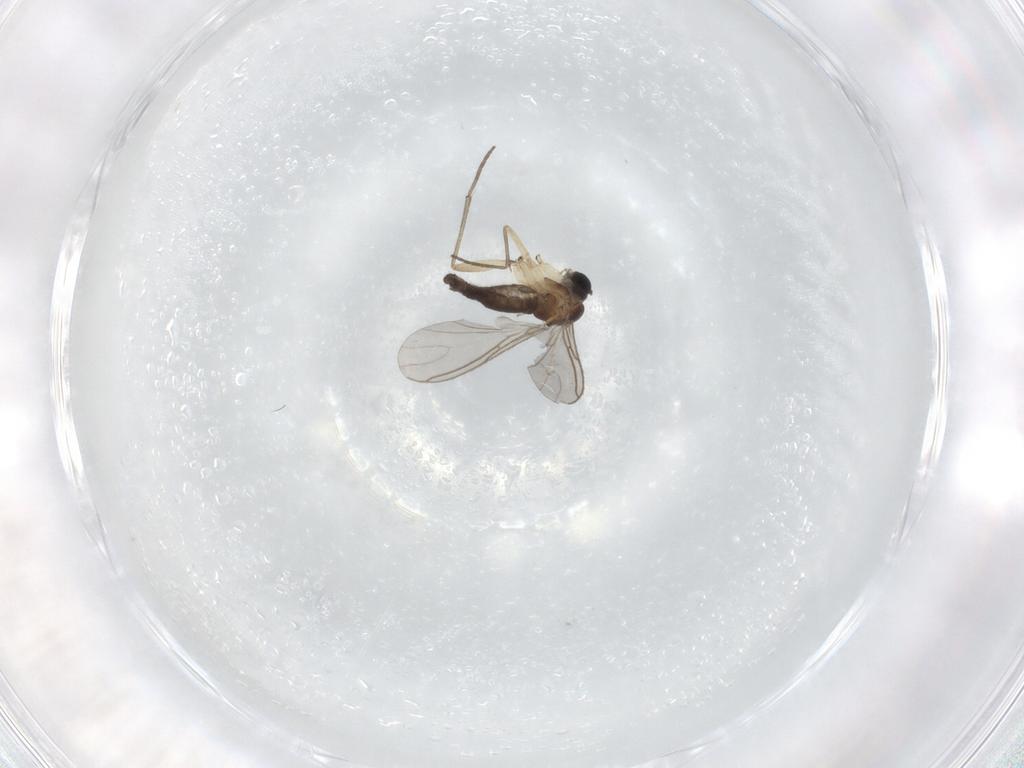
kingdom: Animalia
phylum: Arthropoda
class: Insecta
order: Diptera
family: Sciaridae
